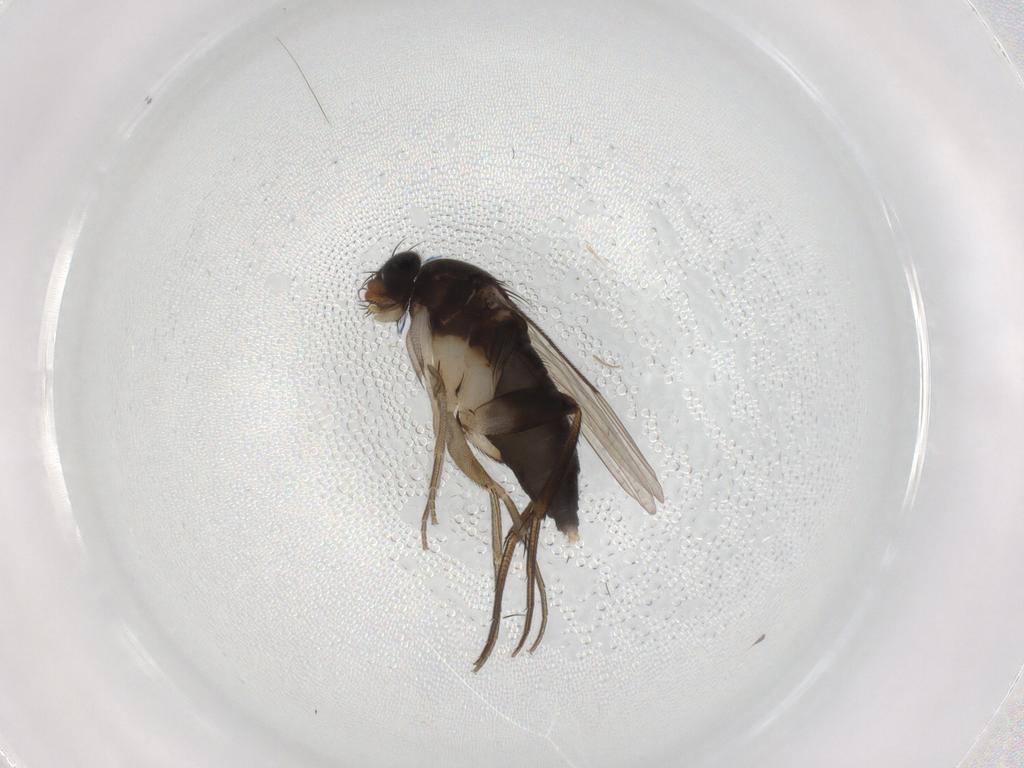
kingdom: Animalia
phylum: Arthropoda
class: Insecta
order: Diptera
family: Phoridae
